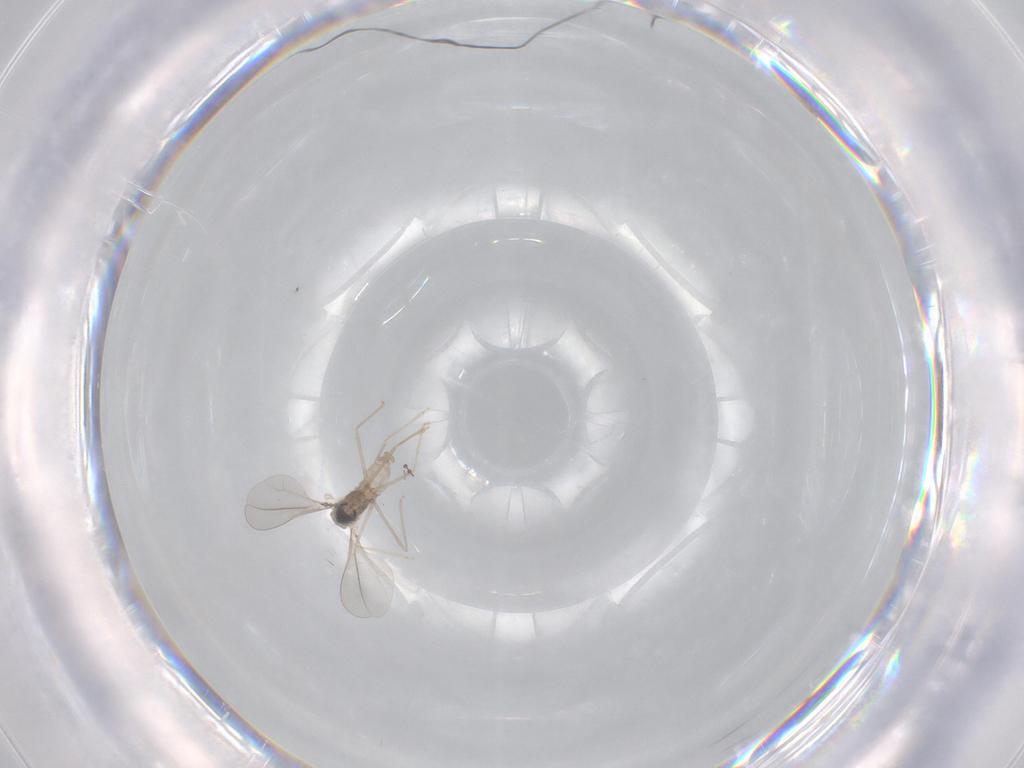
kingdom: Animalia
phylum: Arthropoda
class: Insecta
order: Diptera
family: Cecidomyiidae
